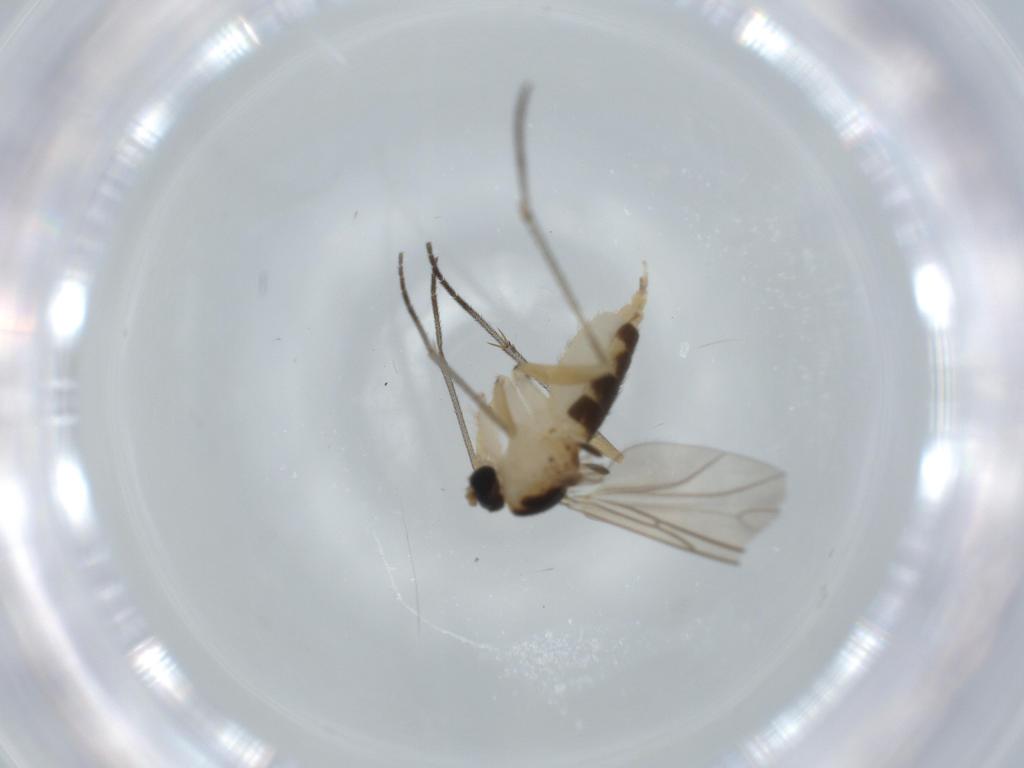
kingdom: Animalia
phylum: Arthropoda
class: Insecta
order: Diptera
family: Sciaridae
